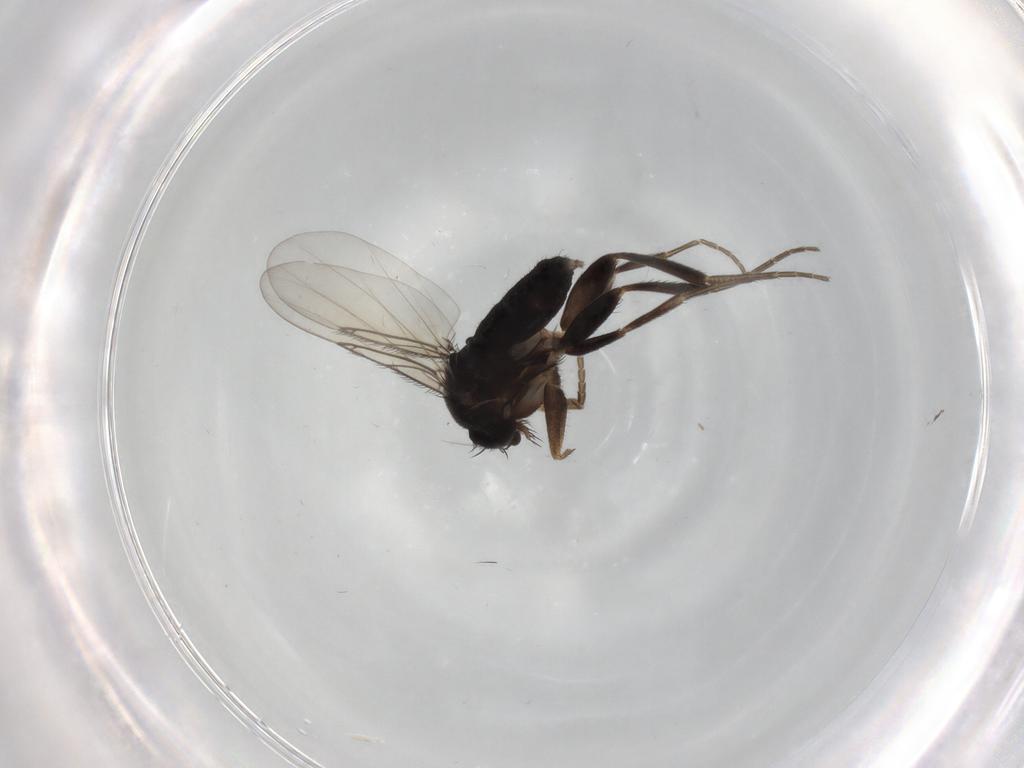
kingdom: Animalia
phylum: Arthropoda
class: Insecta
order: Diptera
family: Phoridae
